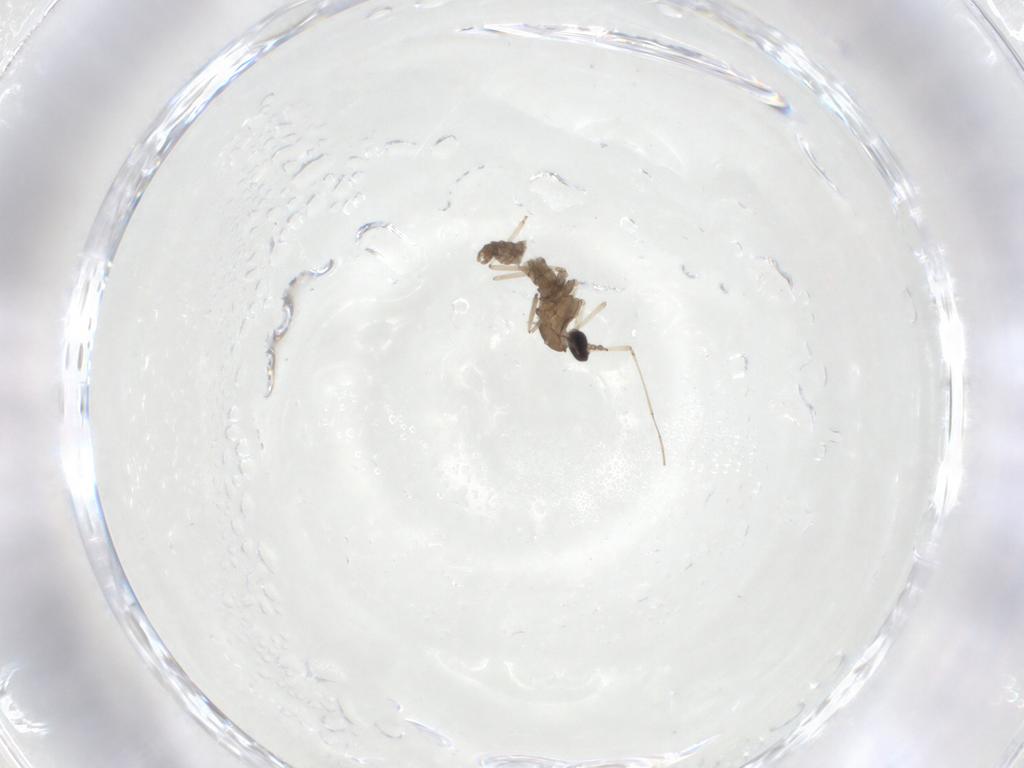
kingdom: Animalia
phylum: Arthropoda
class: Insecta
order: Diptera
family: Cecidomyiidae
